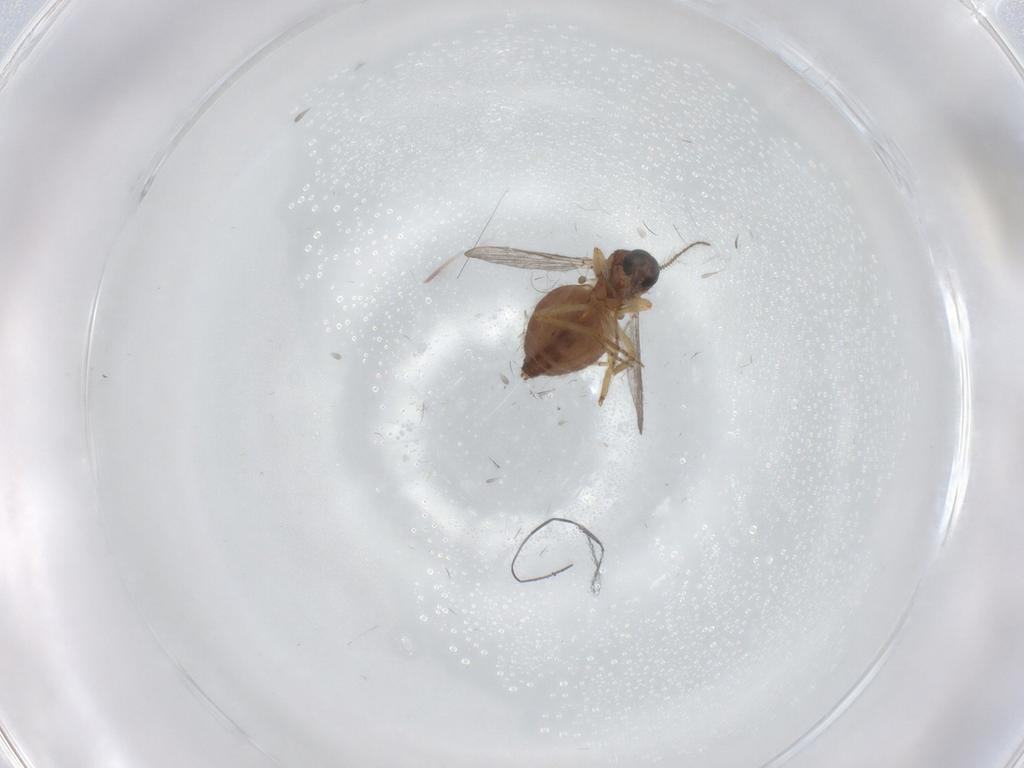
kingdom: Animalia
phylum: Arthropoda
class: Insecta
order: Diptera
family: Ceratopogonidae
